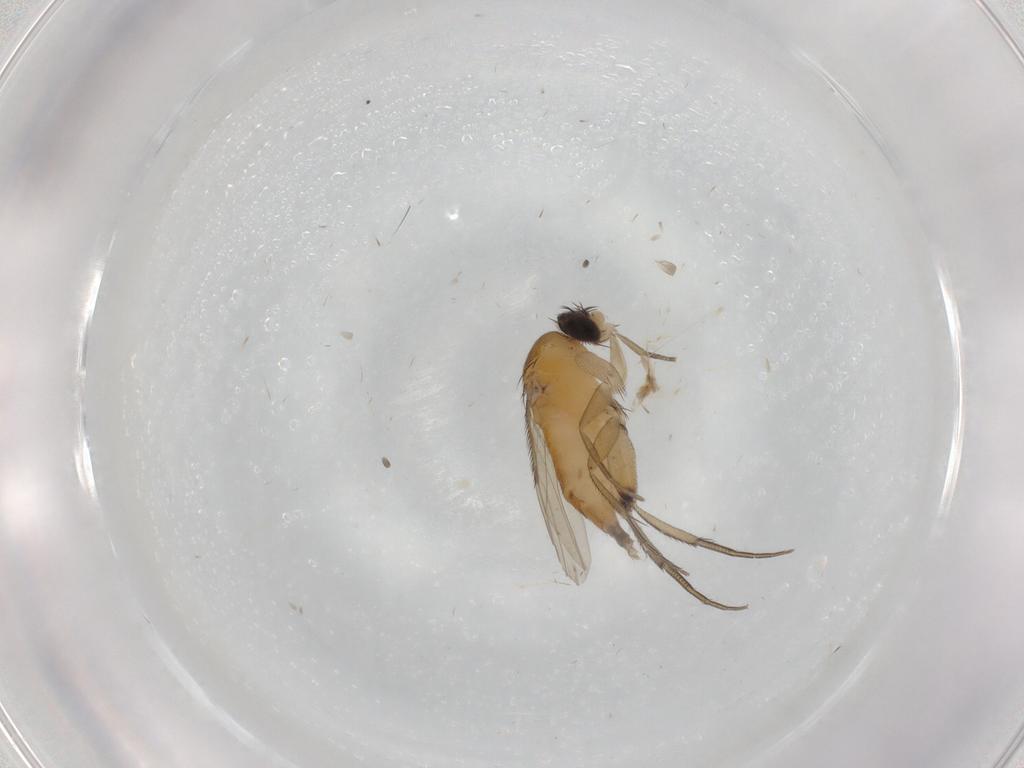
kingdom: Animalia
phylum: Arthropoda
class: Insecta
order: Diptera
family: Phoridae
